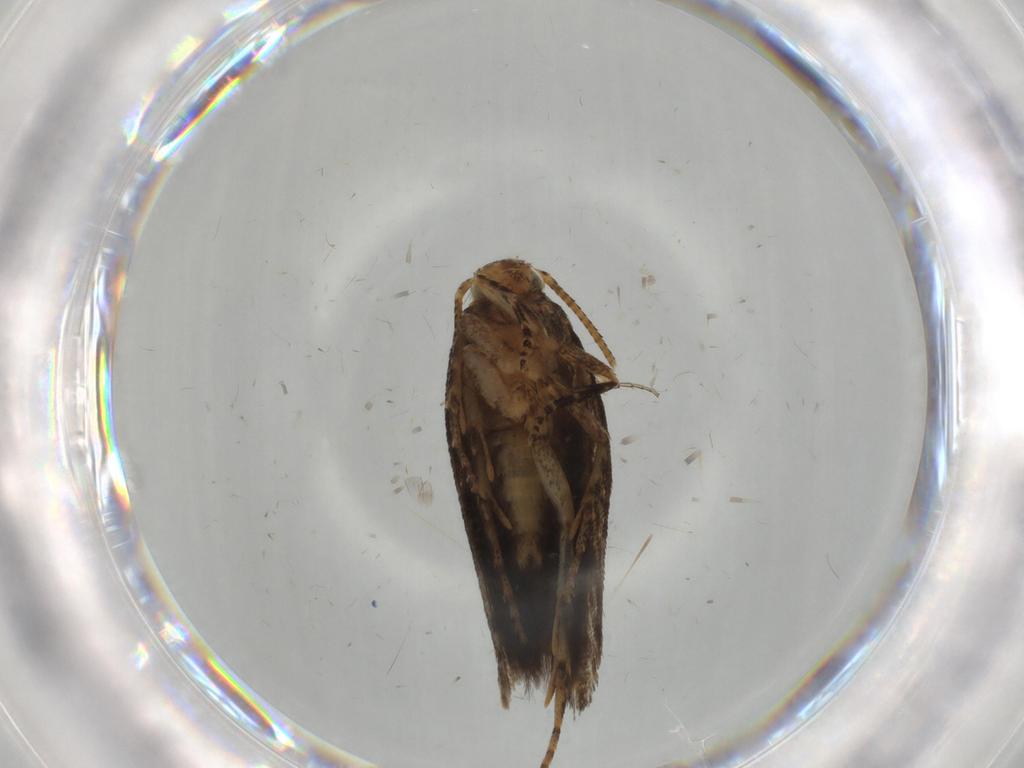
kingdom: Animalia
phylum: Arthropoda
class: Insecta
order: Lepidoptera
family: Gelechiidae
